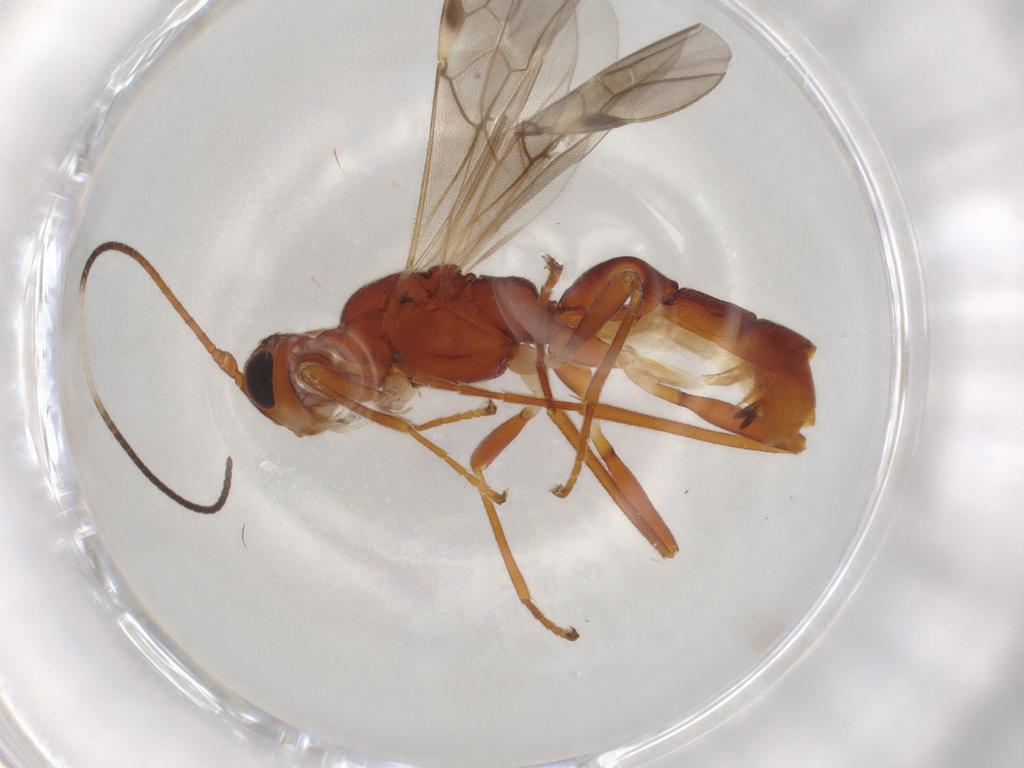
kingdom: Animalia
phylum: Arthropoda
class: Insecta
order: Hymenoptera
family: Braconidae
